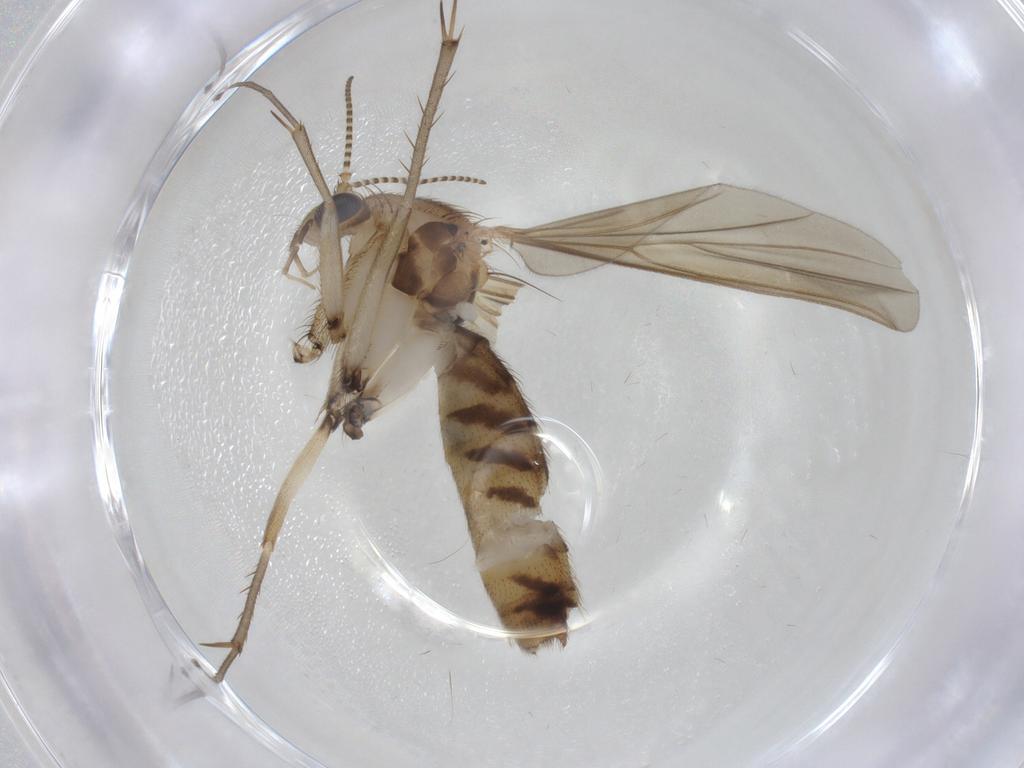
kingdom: Animalia
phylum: Arthropoda
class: Insecta
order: Diptera
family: Mycetophilidae
